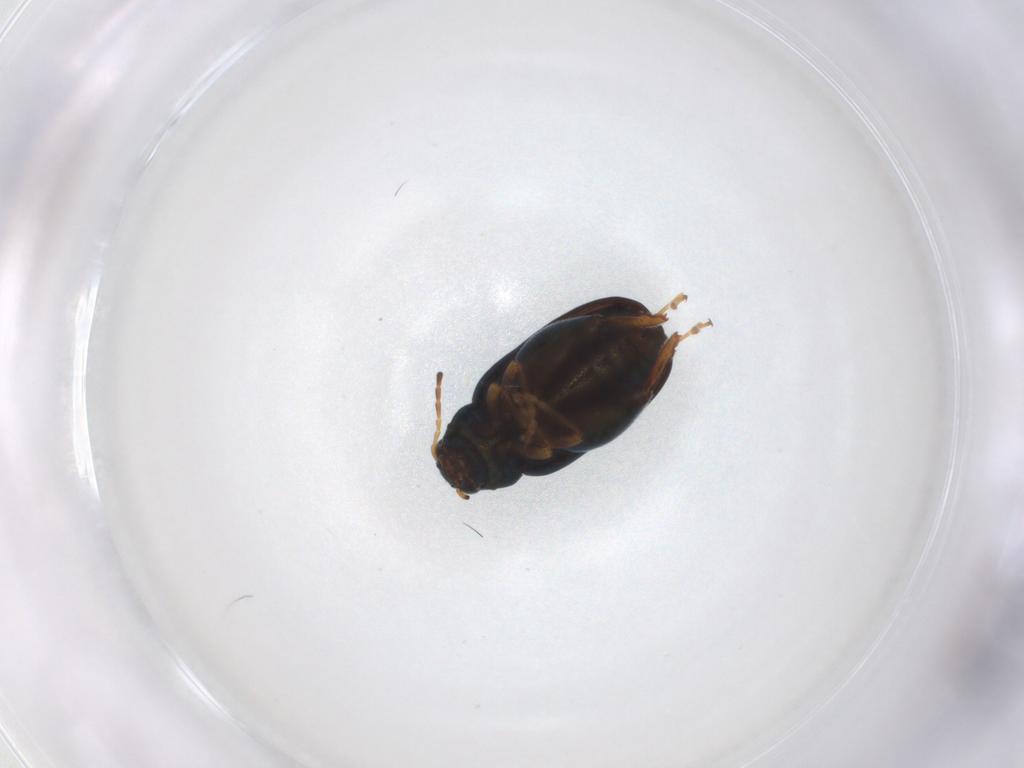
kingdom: Animalia
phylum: Arthropoda
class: Insecta
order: Coleoptera
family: Chrysomelidae
